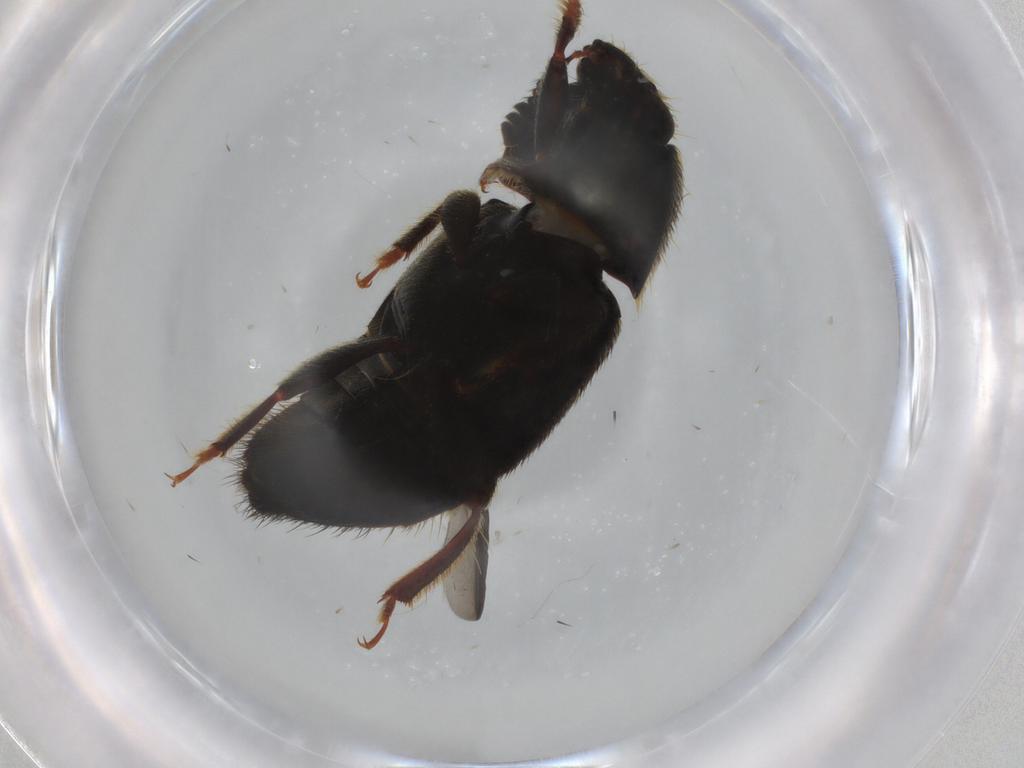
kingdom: Animalia
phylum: Arthropoda
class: Insecta
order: Coleoptera
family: Nitidulidae
